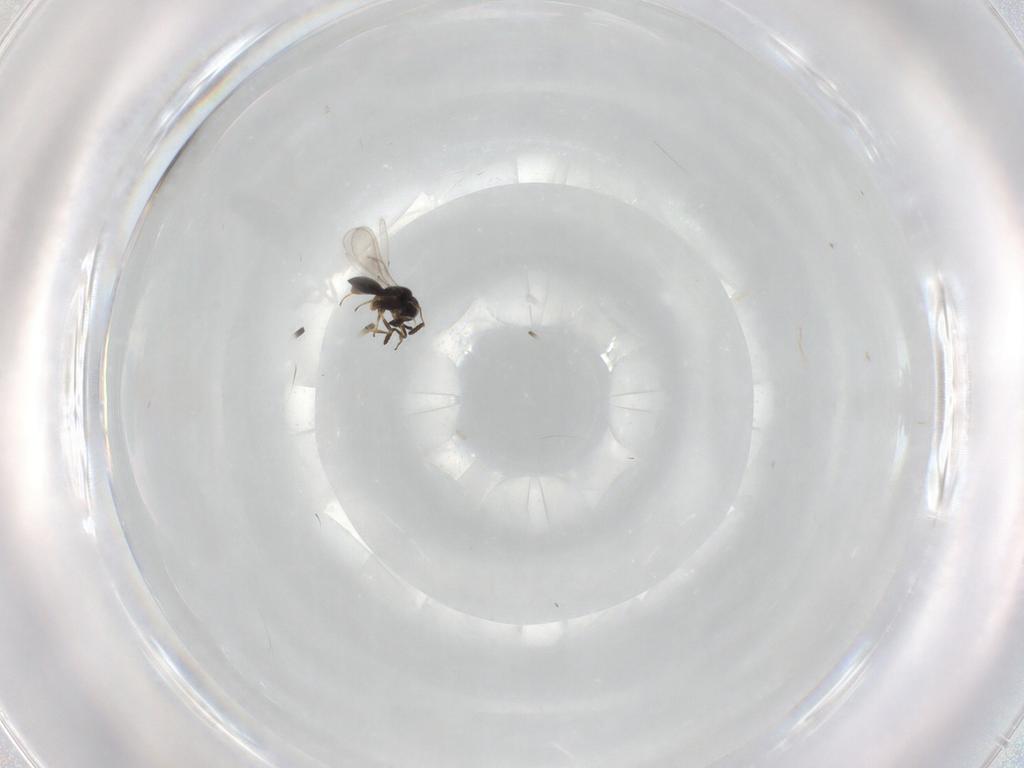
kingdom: Animalia
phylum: Arthropoda
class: Insecta
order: Hymenoptera
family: Scelionidae
